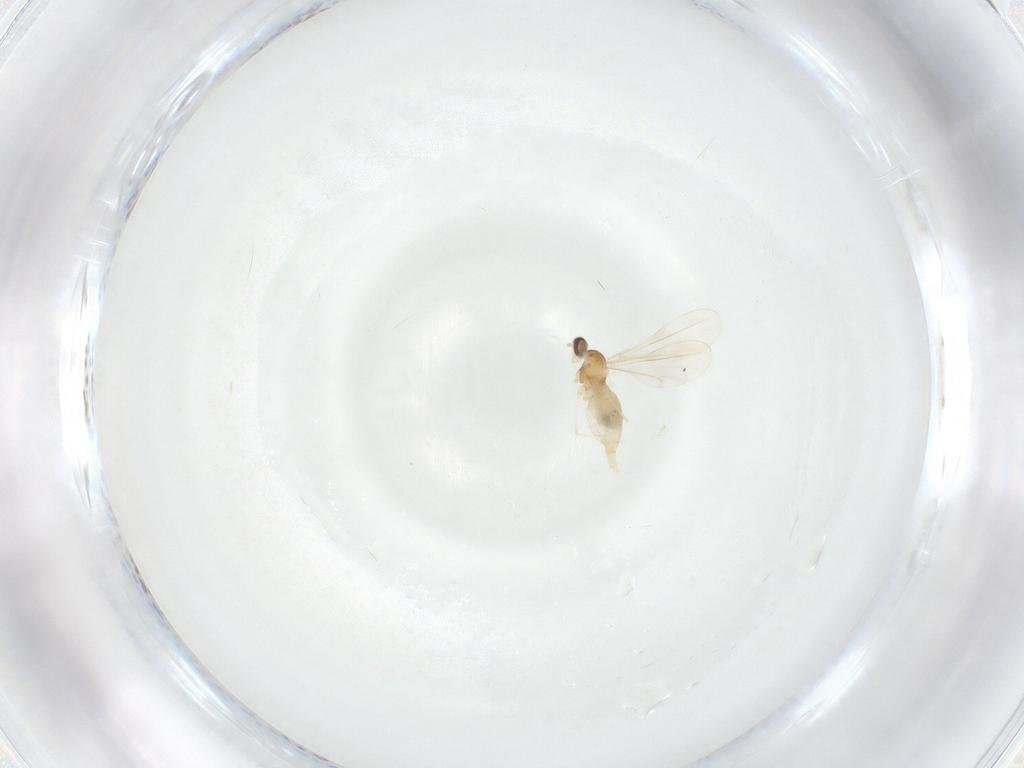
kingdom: Animalia
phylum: Arthropoda
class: Insecta
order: Diptera
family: Cecidomyiidae
